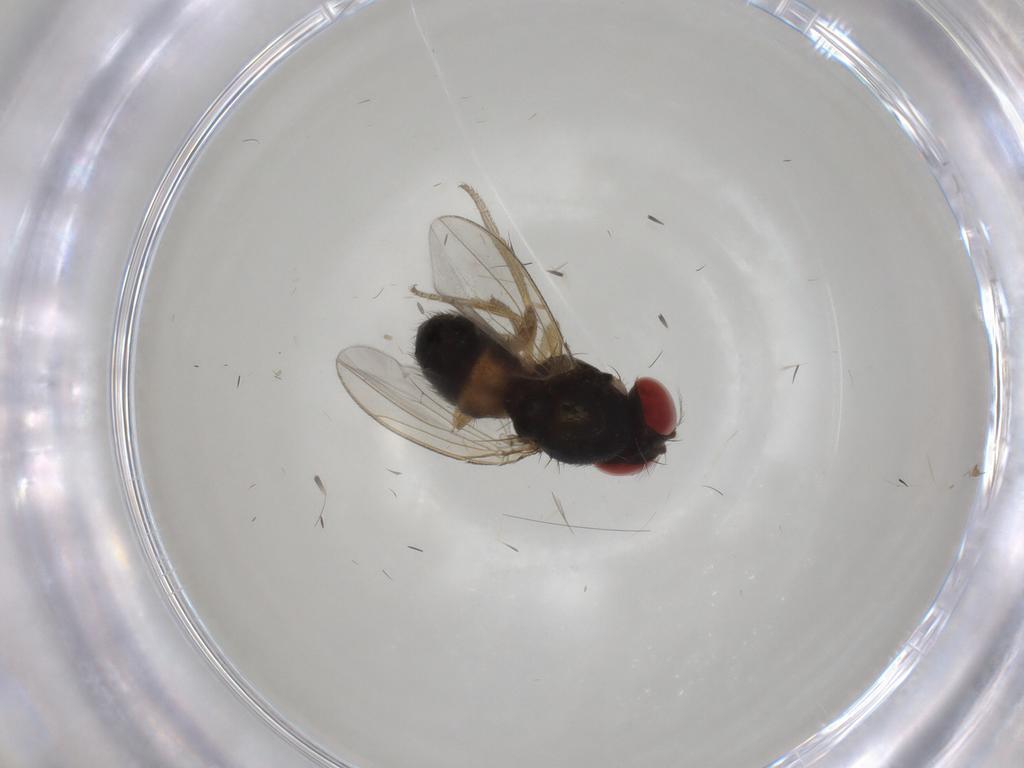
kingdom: Animalia
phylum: Arthropoda
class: Insecta
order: Diptera
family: Drosophilidae
